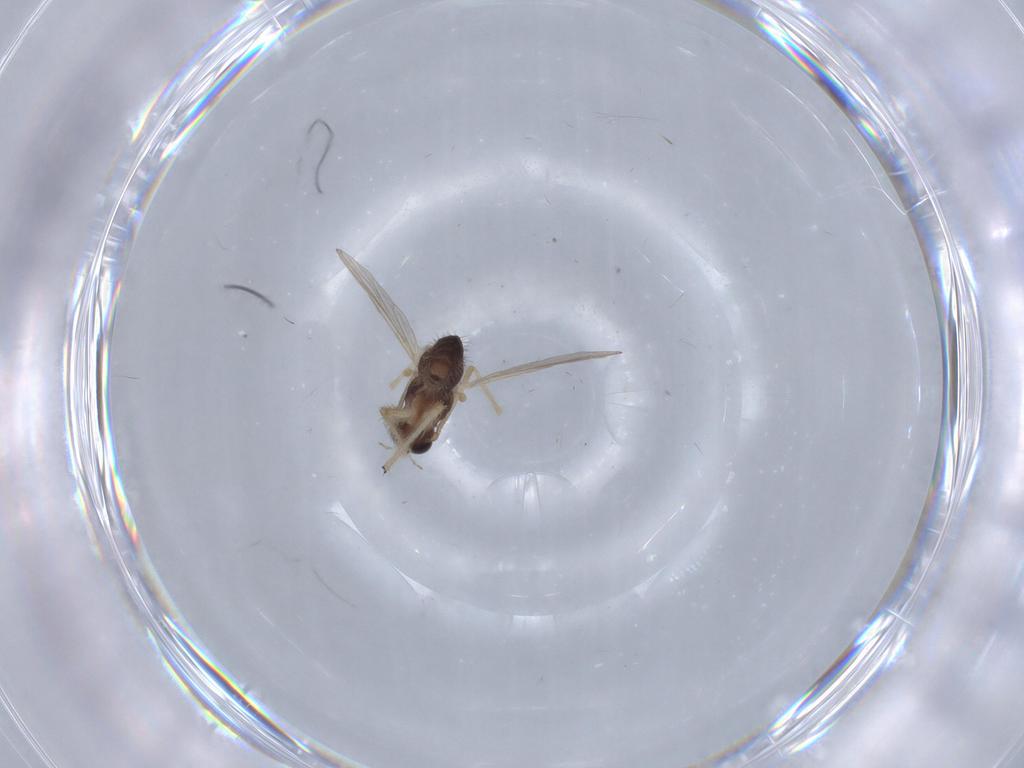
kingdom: Animalia
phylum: Arthropoda
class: Insecta
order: Diptera
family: Chironomidae
